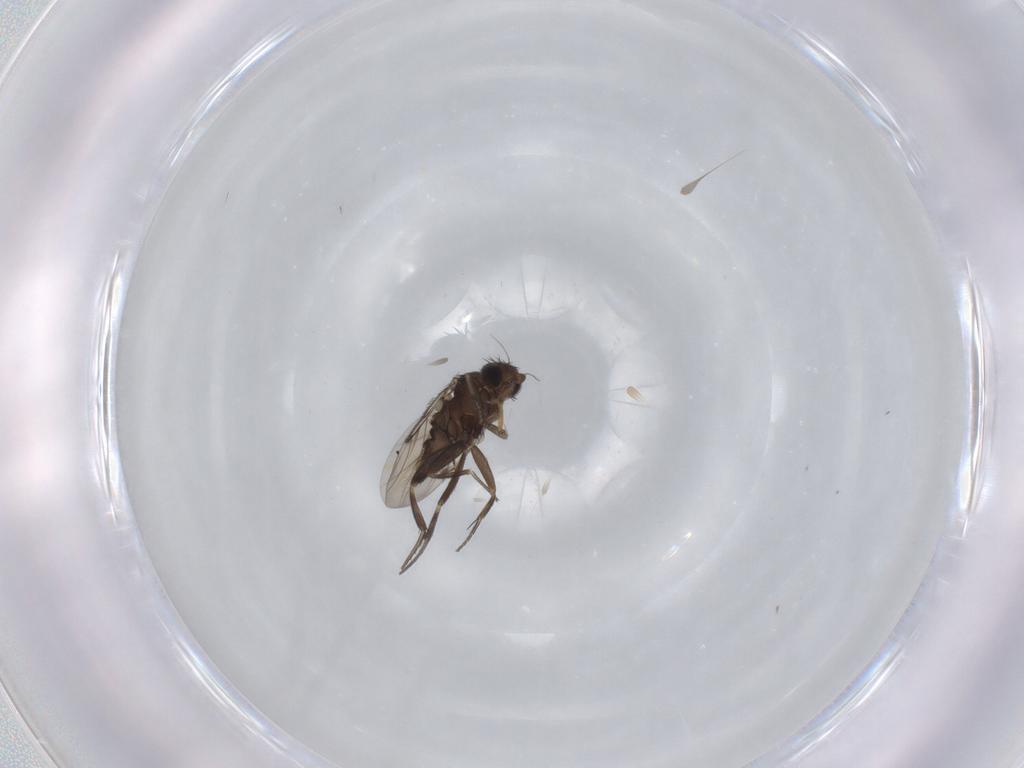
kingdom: Animalia
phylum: Arthropoda
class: Insecta
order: Diptera
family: Phoridae
